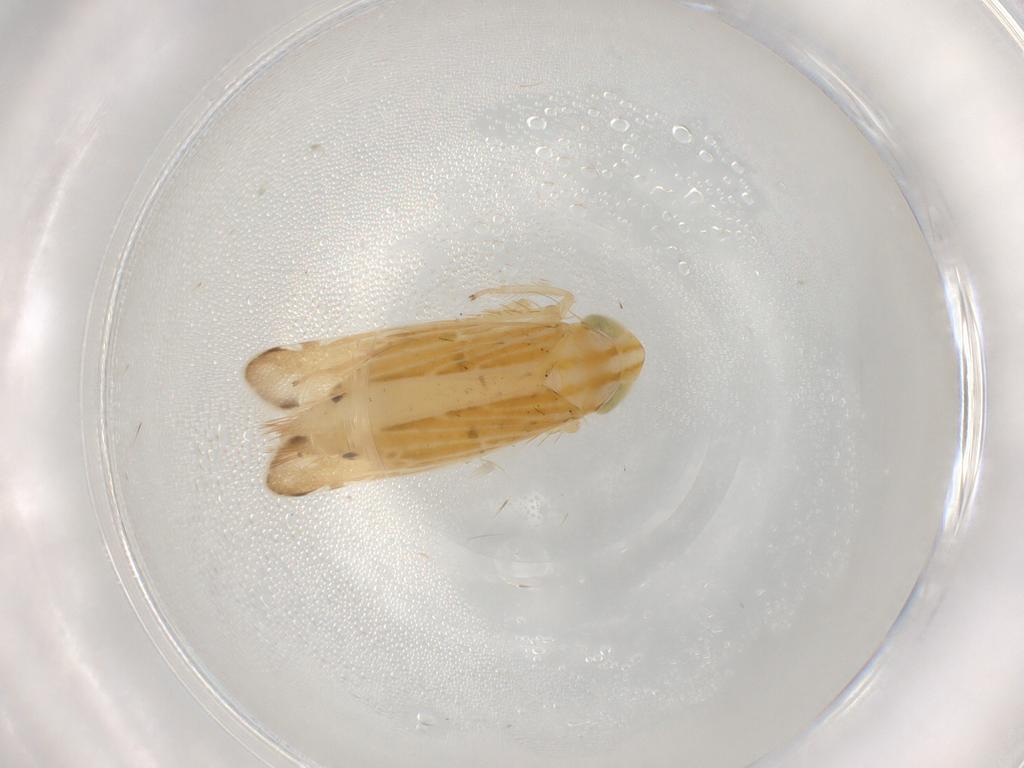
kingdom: Animalia
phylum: Arthropoda
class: Insecta
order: Hemiptera
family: Cicadellidae
